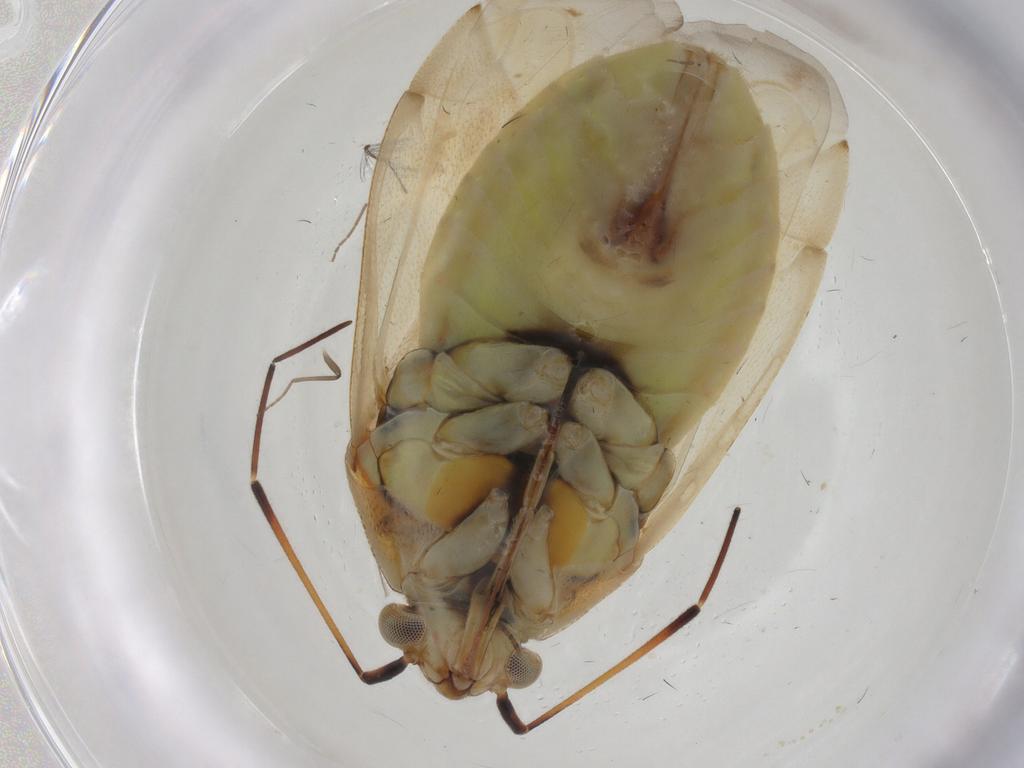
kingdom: Animalia
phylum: Arthropoda
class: Insecta
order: Hemiptera
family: Miridae
